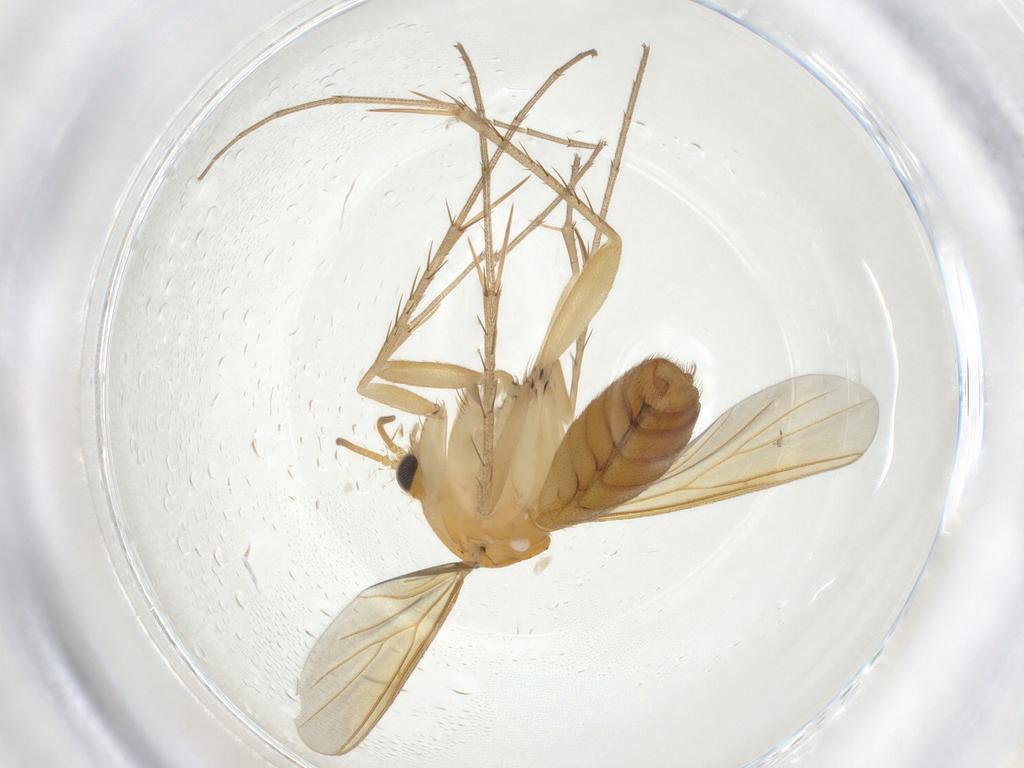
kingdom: Animalia
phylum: Arthropoda
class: Insecta
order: Diptera
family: Mycetophilidae
